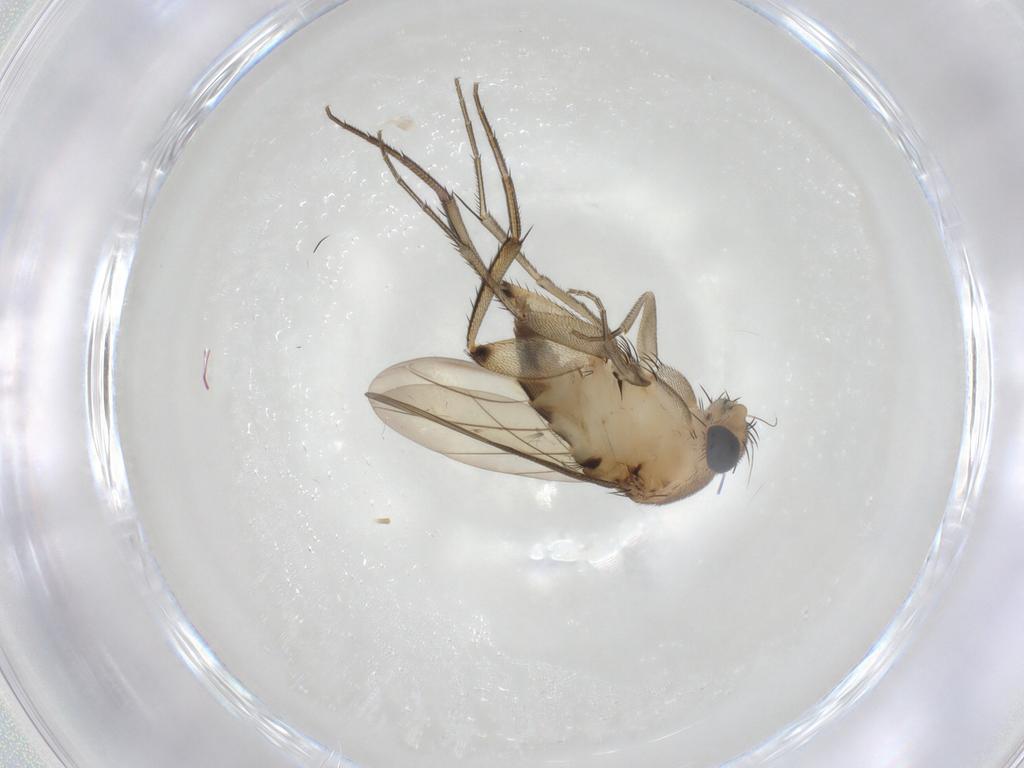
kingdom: Animalia
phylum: Arthropoda
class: Insecta
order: Diptera
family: Phoridae
